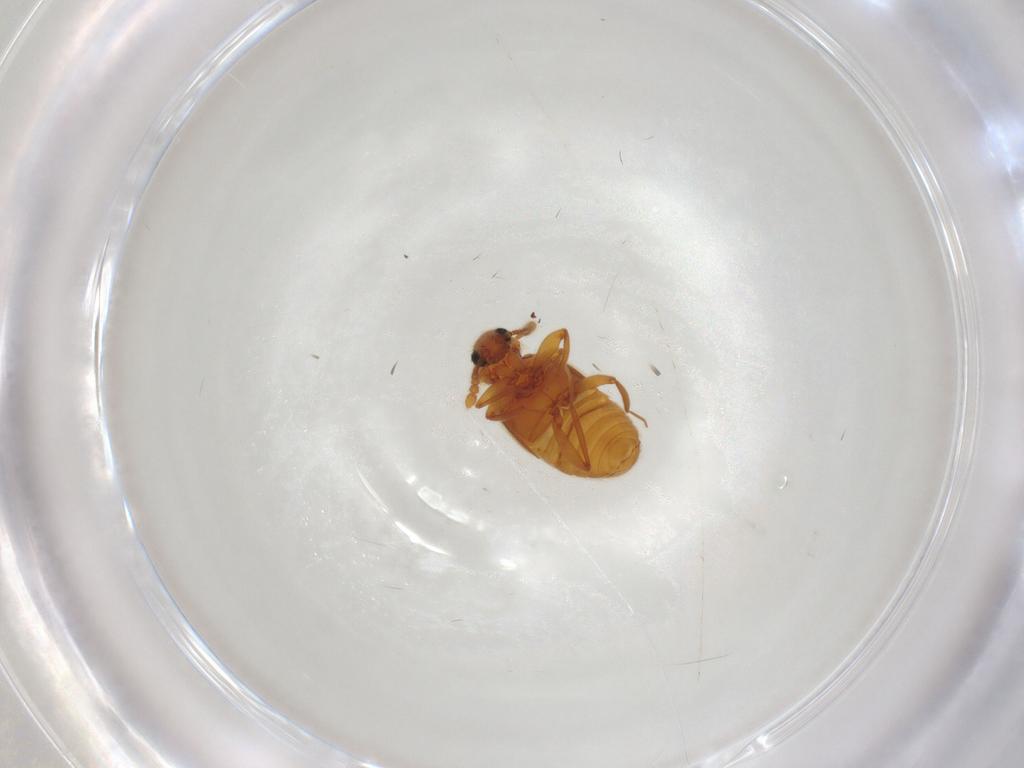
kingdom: Animalia
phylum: Arthropoda
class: Insecta
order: Coleoptera
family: Staphylinidae
